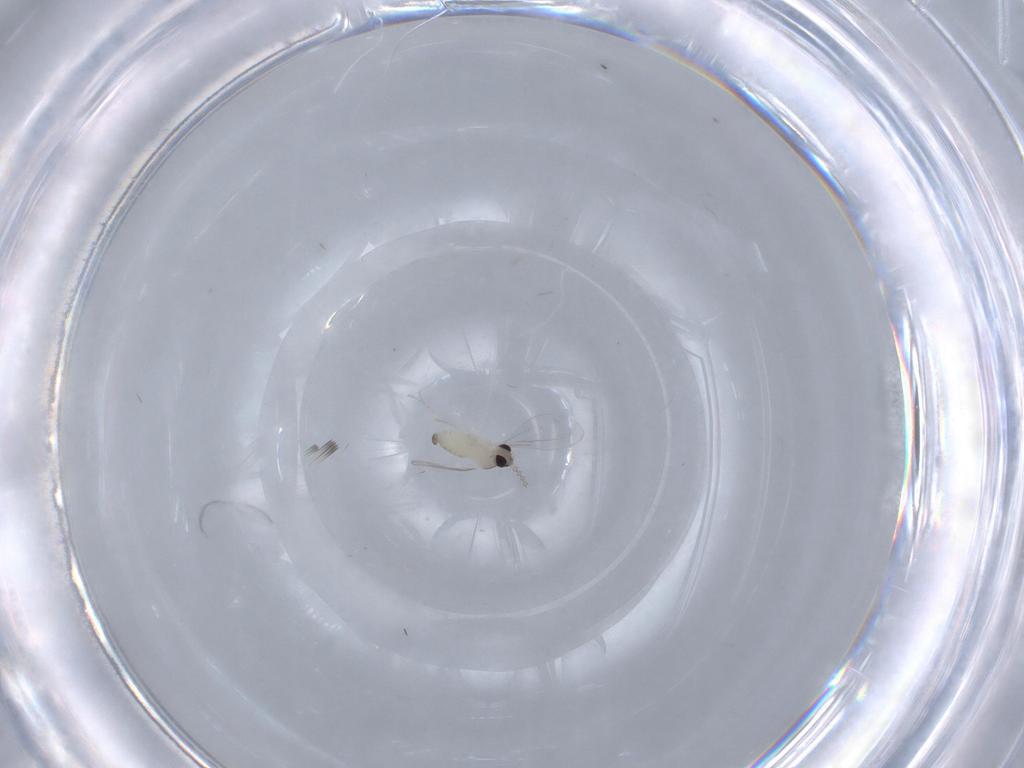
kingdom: Animalia
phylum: Arthropoda
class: Insecta
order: Diptera
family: Cecidomyiidae
